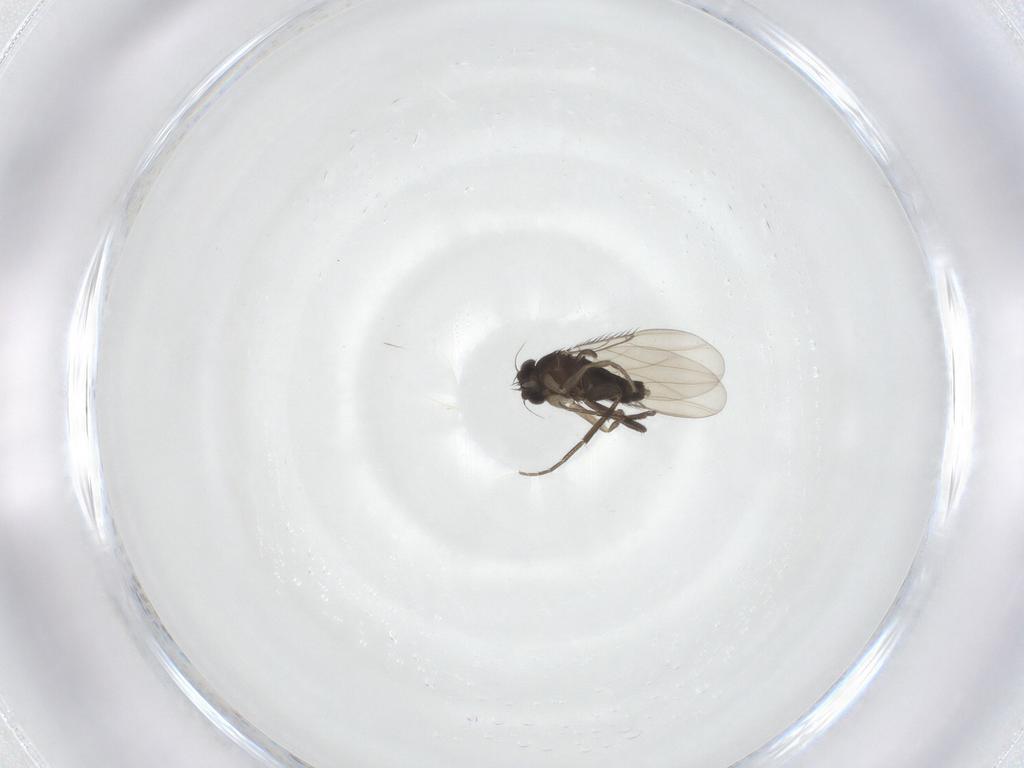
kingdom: Animalia
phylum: Arthropoda
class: Insecta
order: Diptera
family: Phoridae
